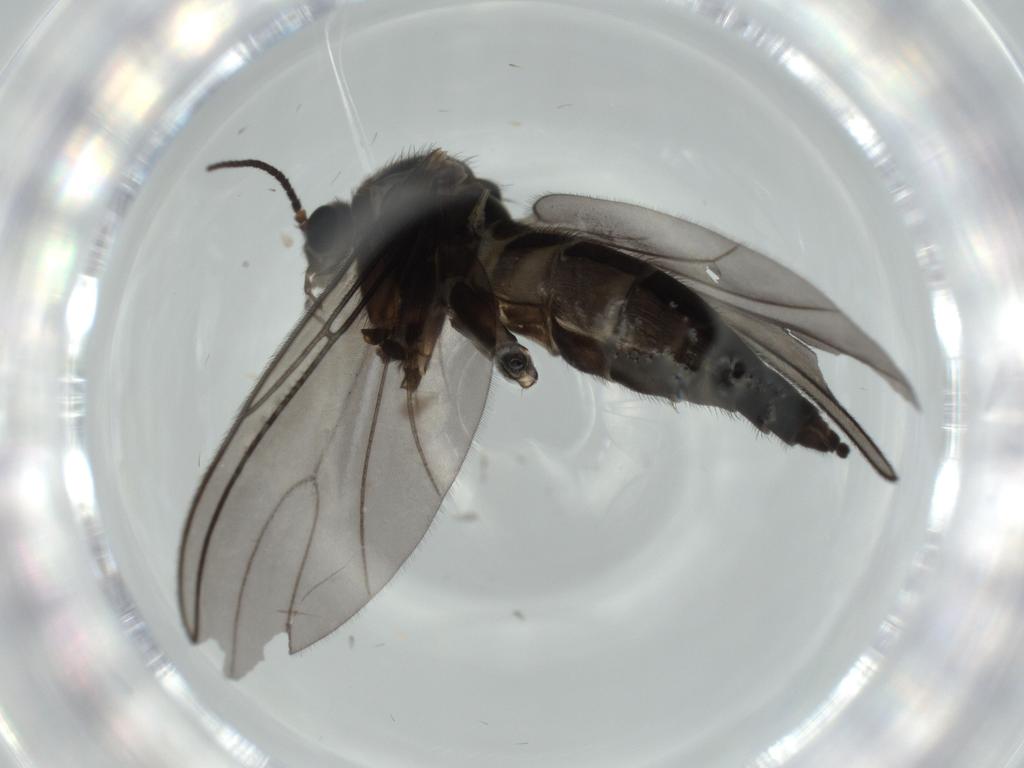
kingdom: Animalia
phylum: Arthropoda
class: Insecta
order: Diptera
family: Sciaridae
